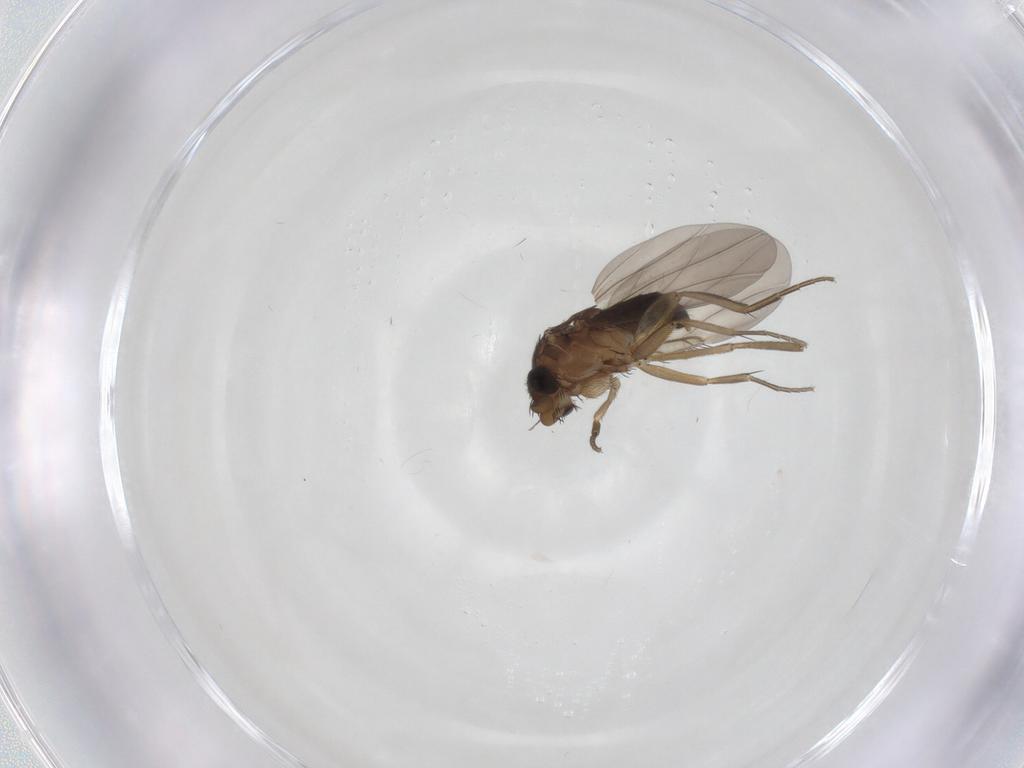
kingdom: Animalia
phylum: Arthropoda
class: Insecta
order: Diptera
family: Phoridae
